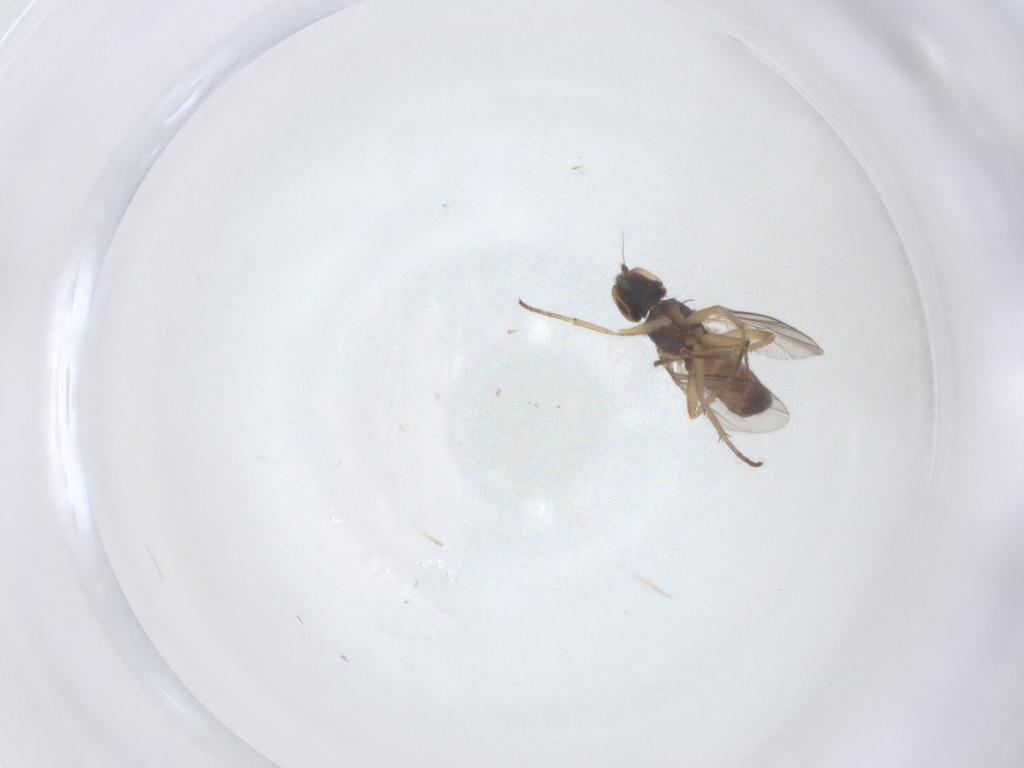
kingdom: Animalia
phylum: Arthropoda
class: Insecta
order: Diptera
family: Dolichopodidae
